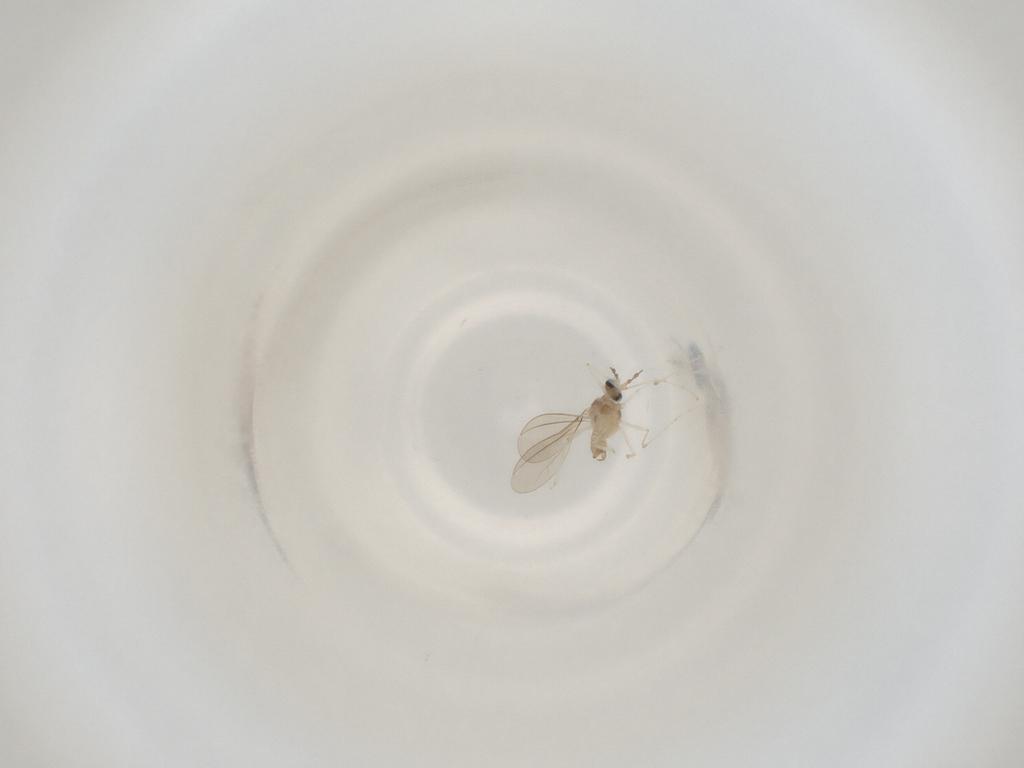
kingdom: Animalia
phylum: Arthropoda
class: Insecta
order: Diptera
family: Cecidomyiidae
